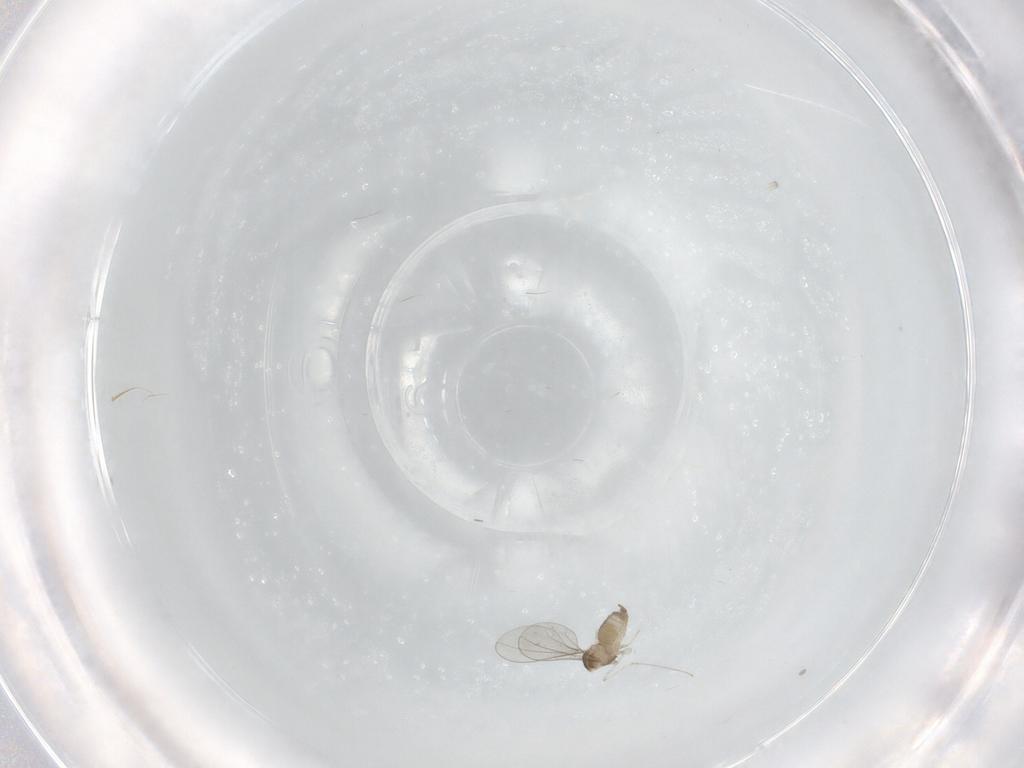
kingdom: Animalia
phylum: Arthropoda
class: Insecta
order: Diptera
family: Cecidomyiidae
